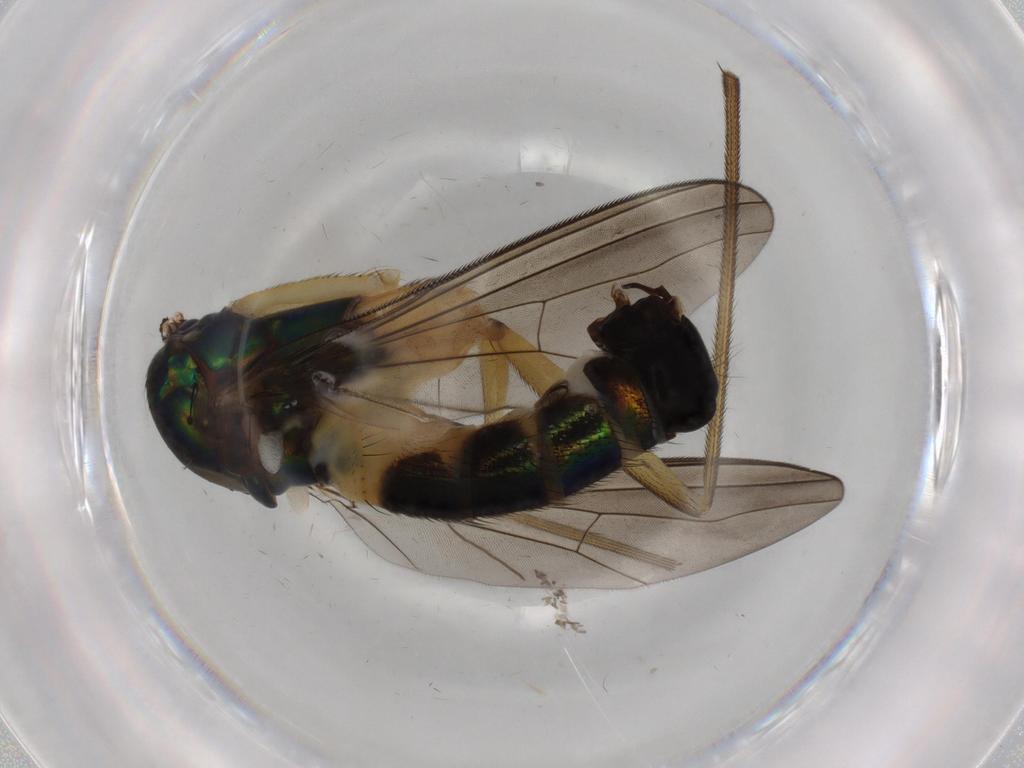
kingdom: Animalia
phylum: Arthropoda
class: Insecta
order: Diptera
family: Dolichopodidae
